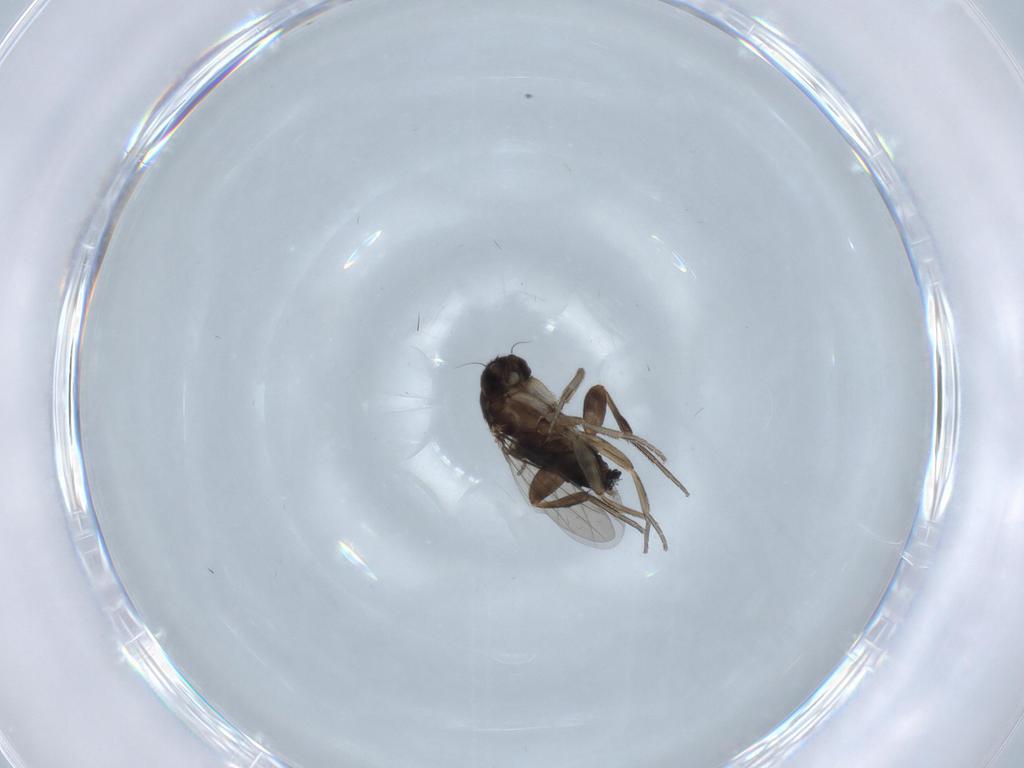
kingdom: Animalia
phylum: Arthropoda
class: Insecta
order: Diptera
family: Phoridae
